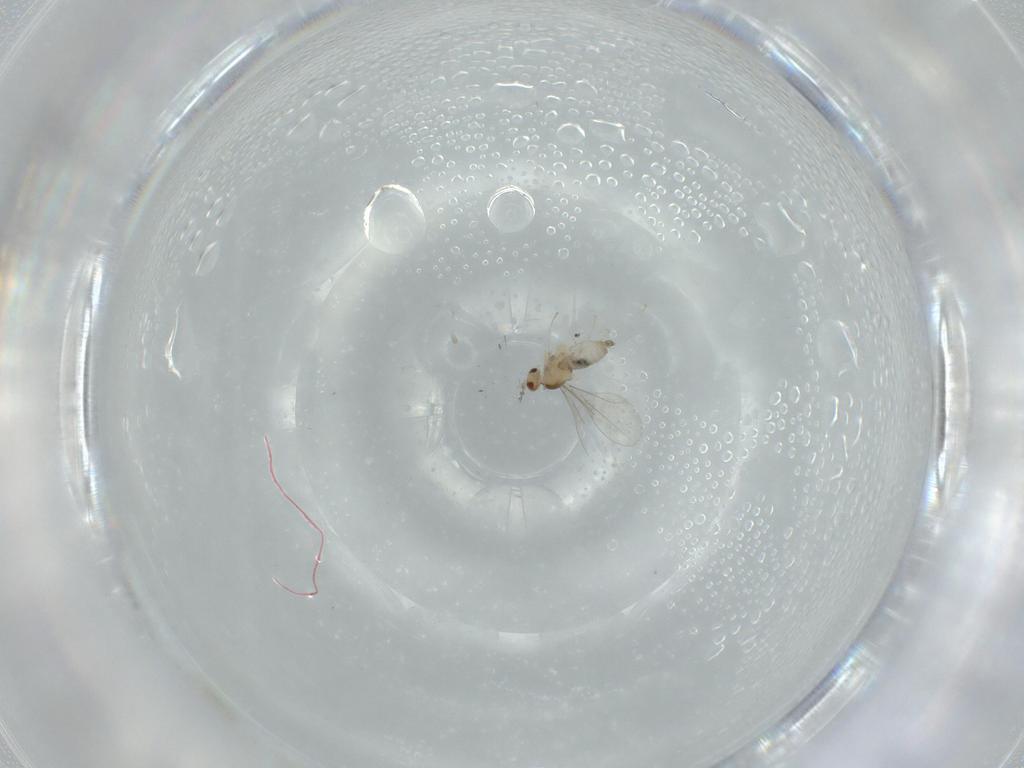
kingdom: Animalia
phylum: Arthropoda
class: Insecta
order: Diptera
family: Cecidomyiidae
